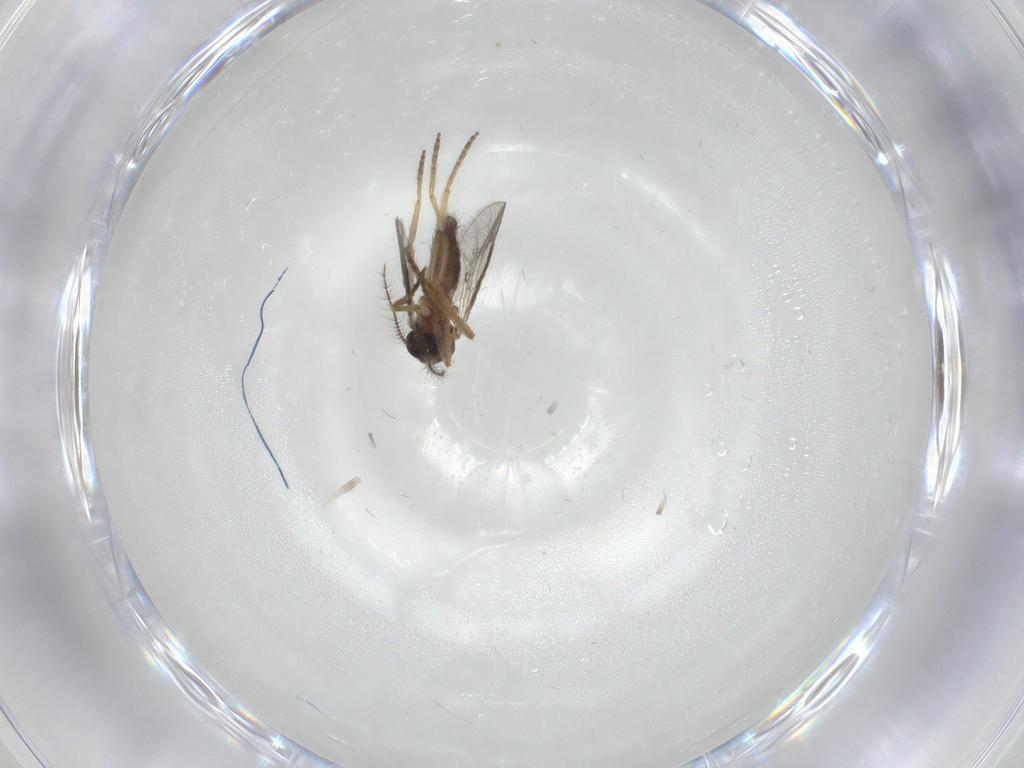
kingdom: Animalia
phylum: Arthropoda
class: Insecta
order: Diptera
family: Ceratopogonidae
